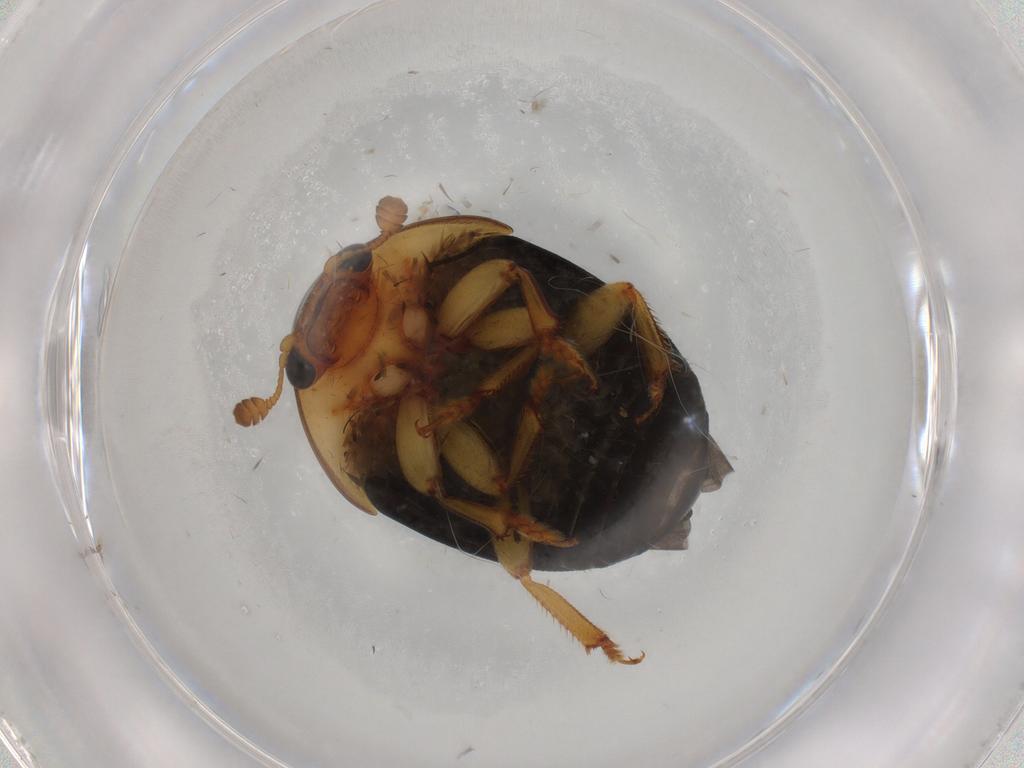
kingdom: Animalia
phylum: Arthropoda
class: Insecta
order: Coleoptera
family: Nitidulidae
